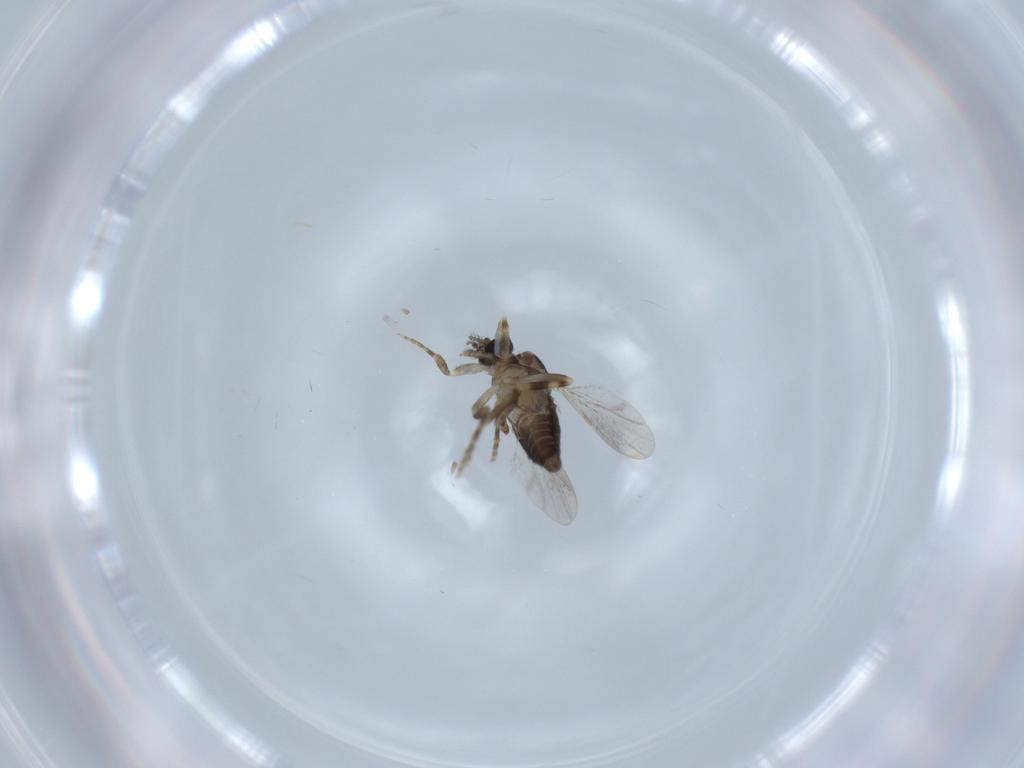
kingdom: Animalia
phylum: Arthropoda
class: Insecta
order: Diptera
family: Ceratopogonidae
